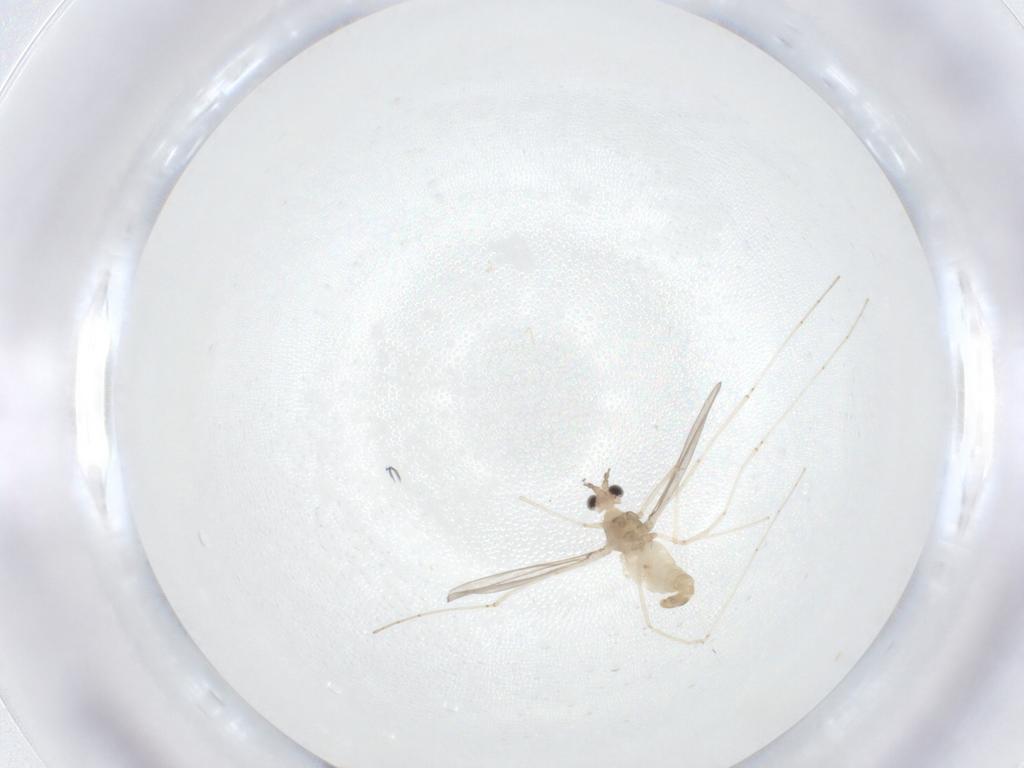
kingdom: Animalia
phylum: Arthropoda
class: Insecta
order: Diptera
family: Cecidomyiidae
